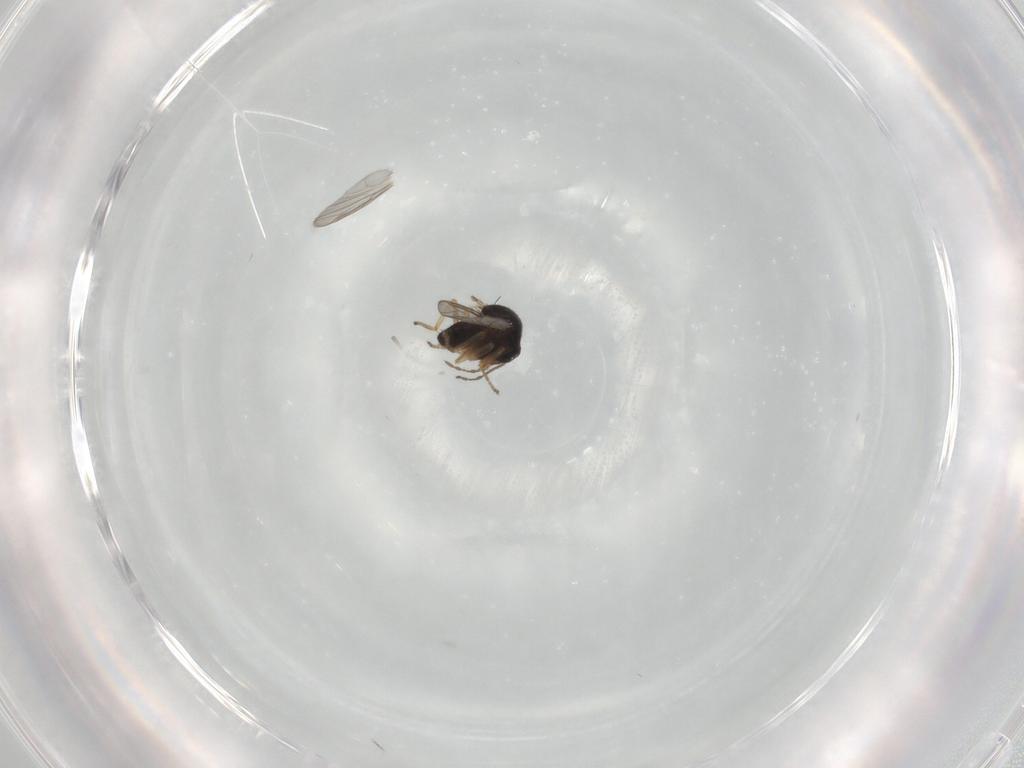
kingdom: Animalia
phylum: Arthropoda
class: Insecta
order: Diptera
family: Ceratopogonidae
